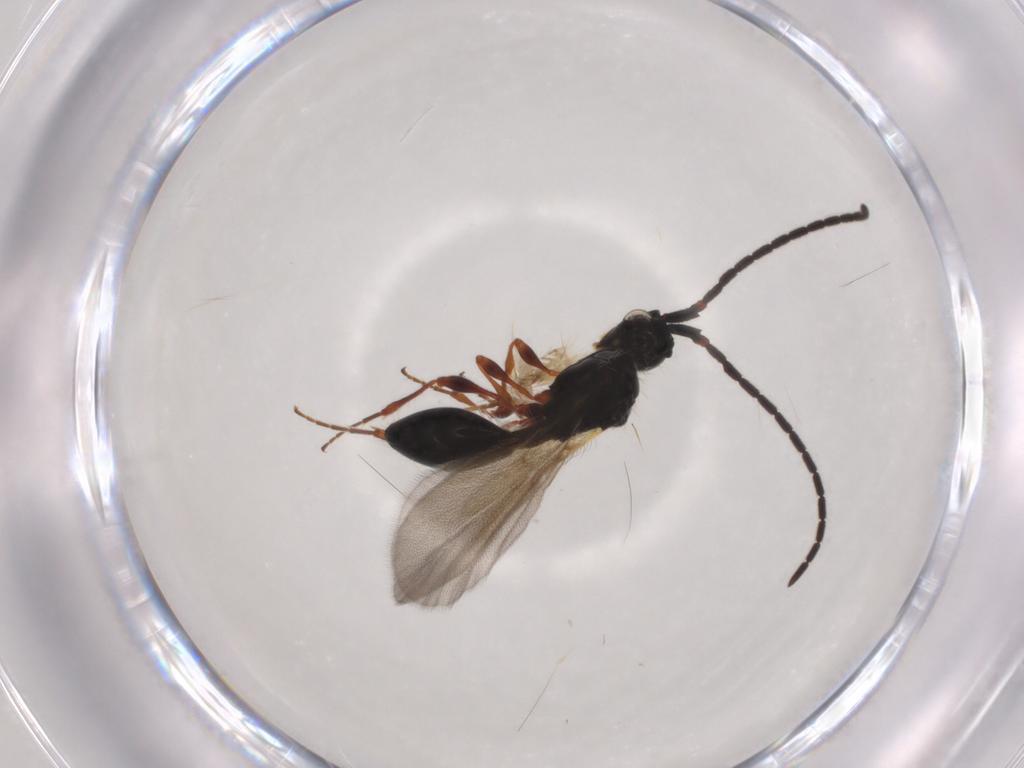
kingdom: Animalia
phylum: Arthropoda
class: Insecta
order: Hymenoptera
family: Diapriidae
